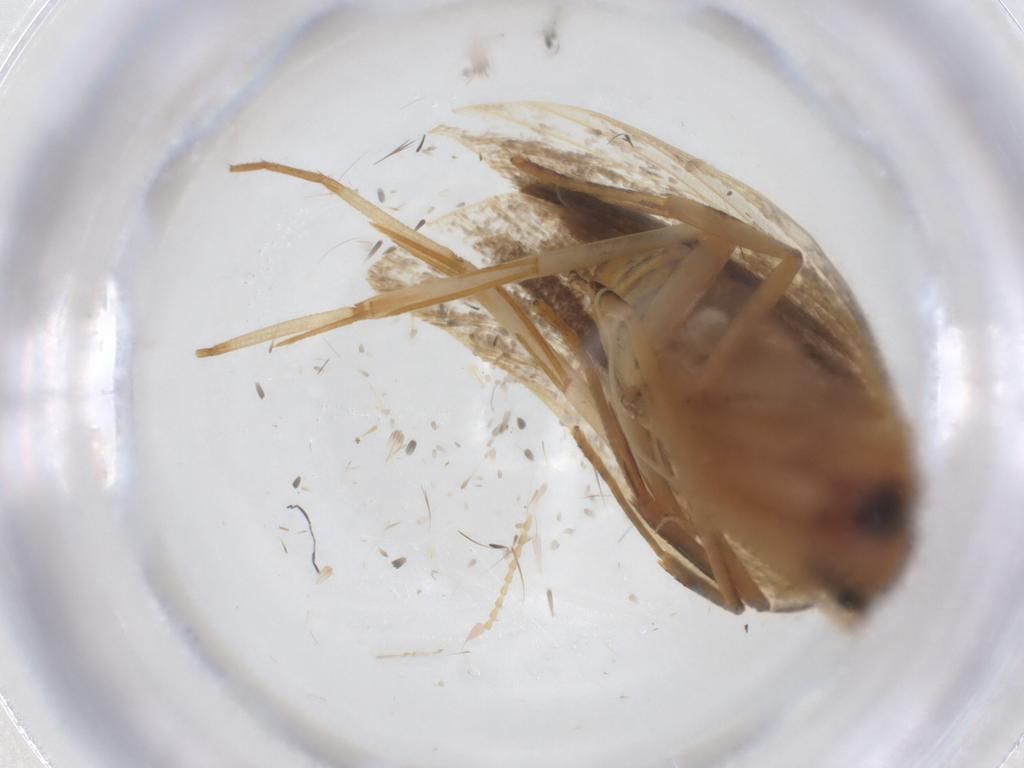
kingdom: Animalia
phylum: Arthropoda
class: Insecta
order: Lepidoptera
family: Lecithoceridae
